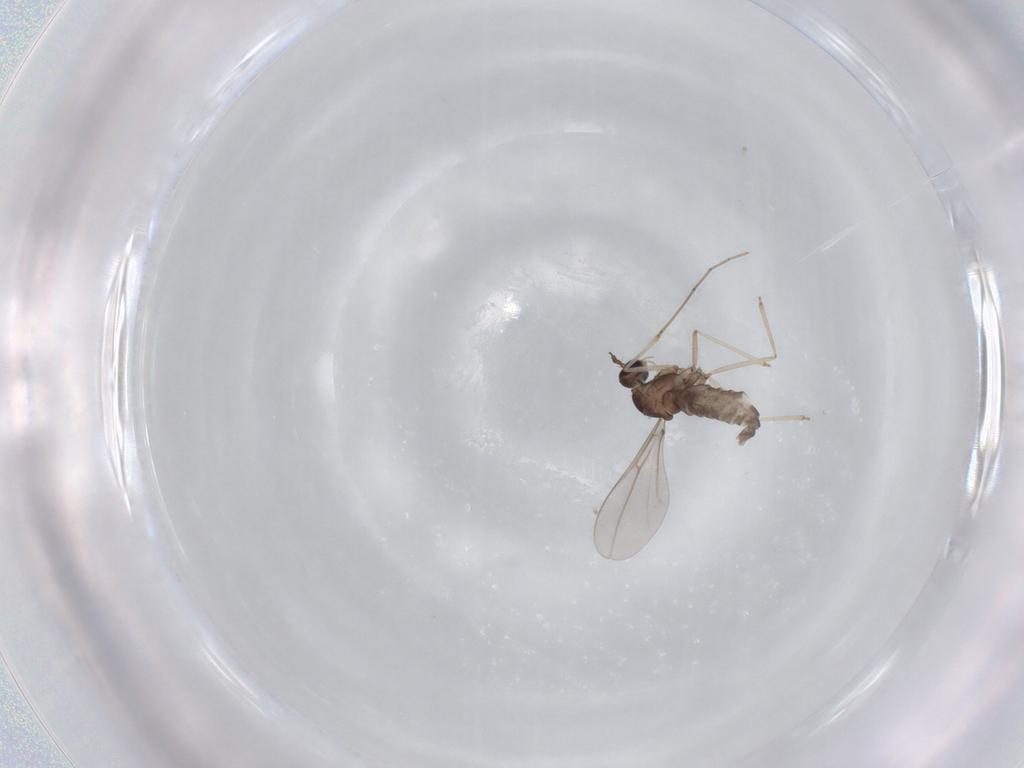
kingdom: Animalia
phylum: Arthropoda
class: Insecta
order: Diptera
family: Cecidomyiidae
